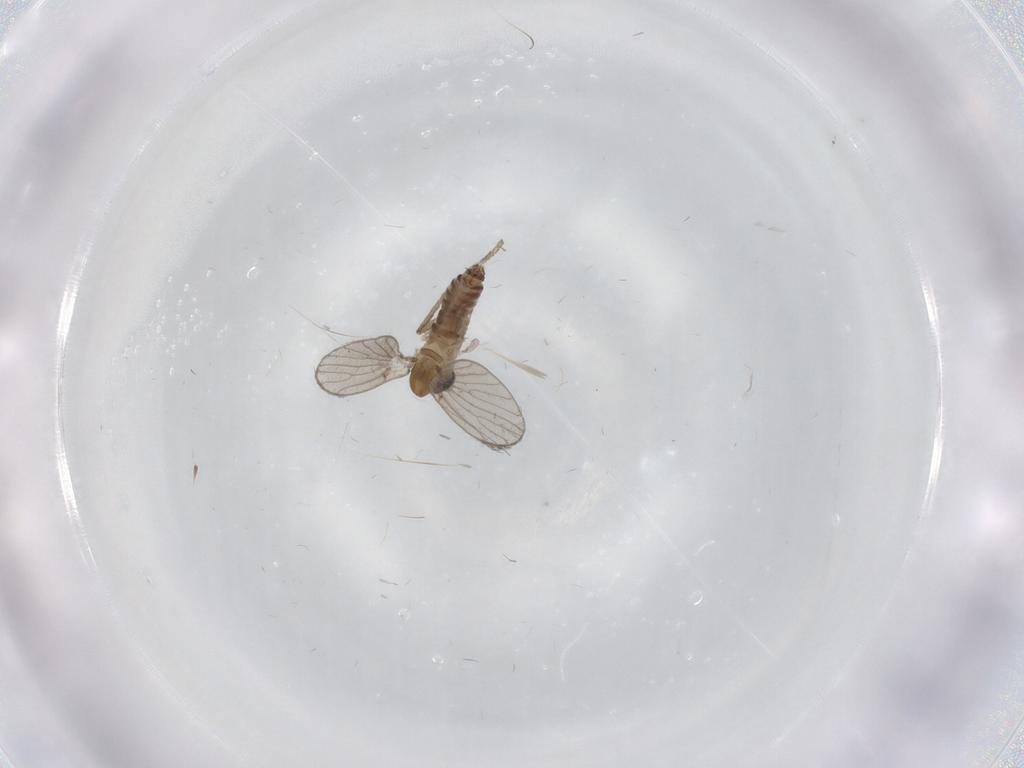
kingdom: Animalia
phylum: Arthropoda
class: Insecta
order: Diptera
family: Psychodidae
